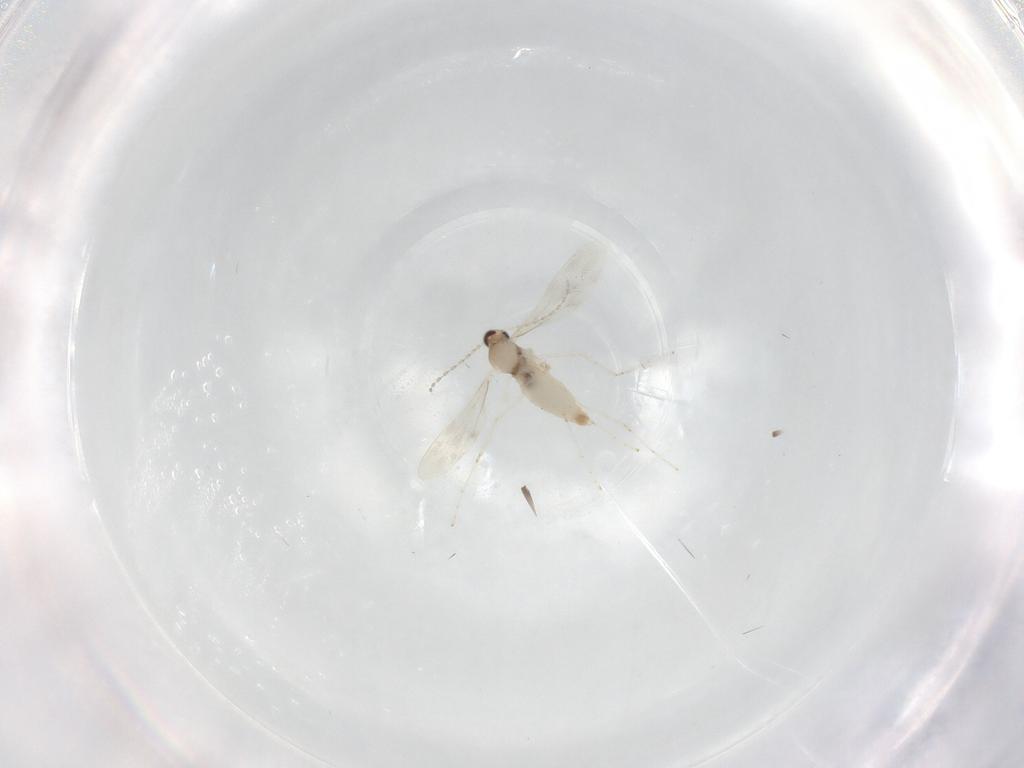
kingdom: Animalia
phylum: Arthropoda
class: Insecta
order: Diptera
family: Cecidomyiidae
